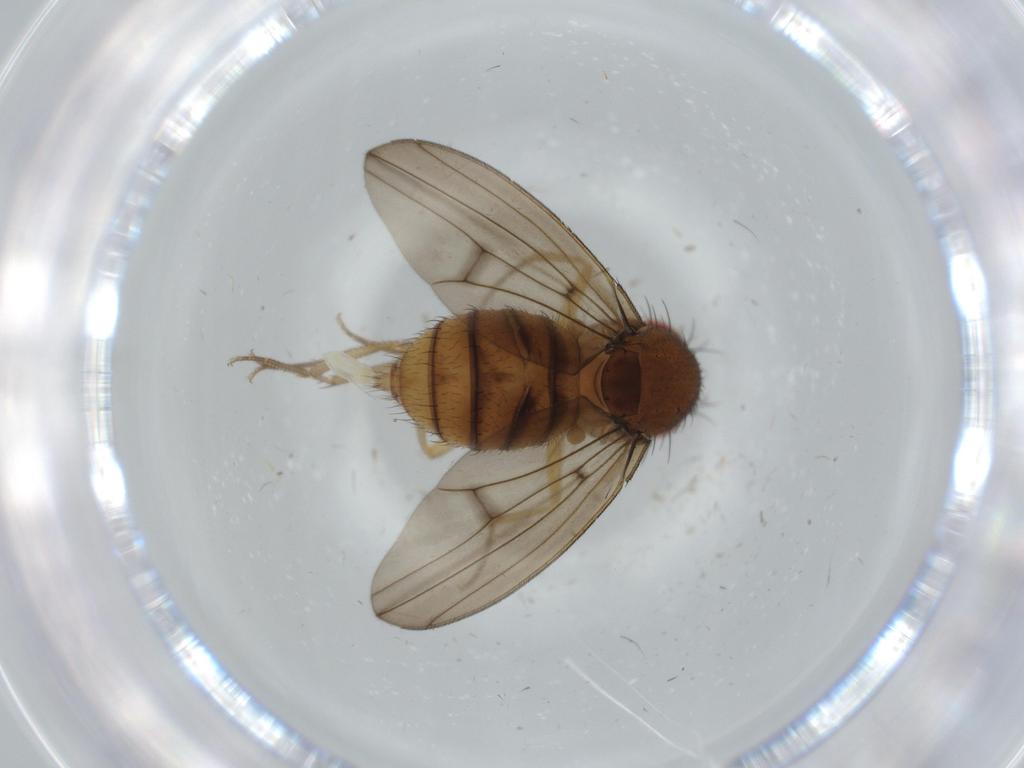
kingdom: Animalia
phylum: Arthropoda
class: Insecta
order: Diptera
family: Drosophilidae
